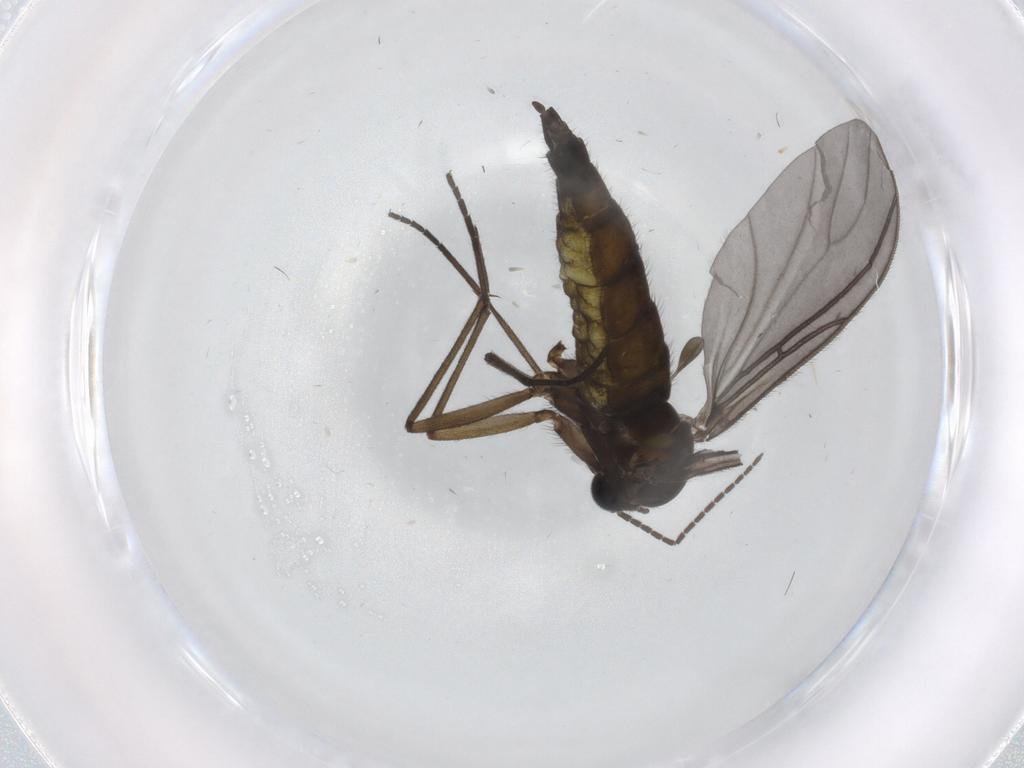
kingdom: Animalia
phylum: Arthropoda
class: Insecta
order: Diptera
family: Sciaridae
